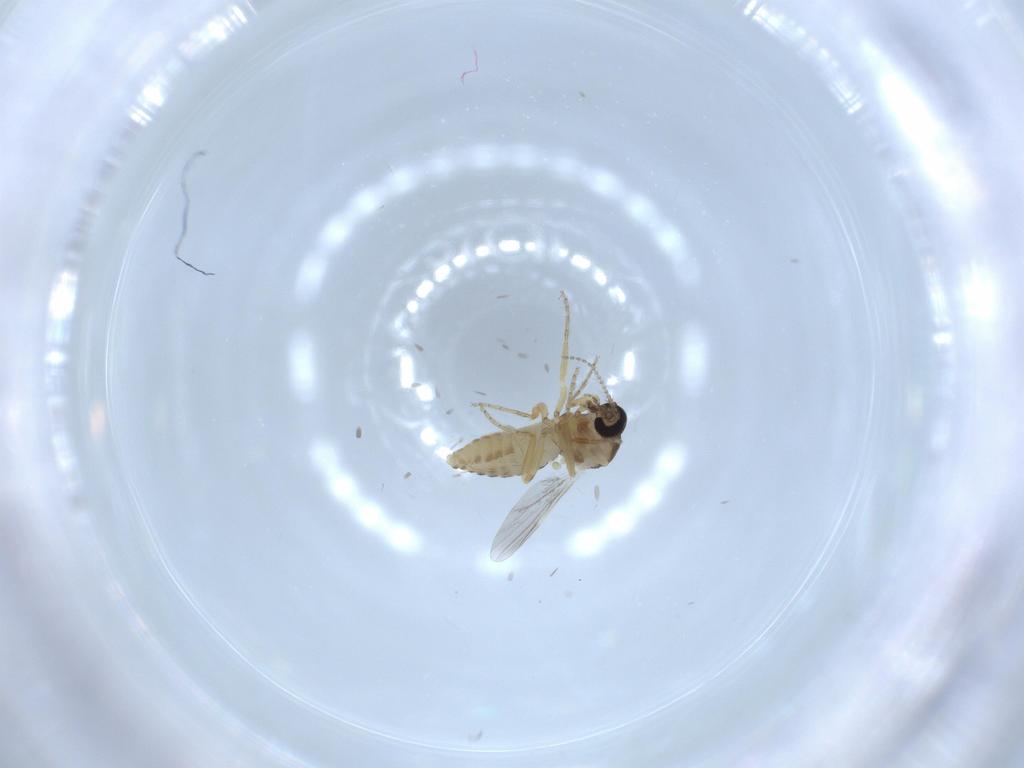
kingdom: Animalia
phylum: Arthropoda
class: Insecta
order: Diptera
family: Ceratopogonidae
